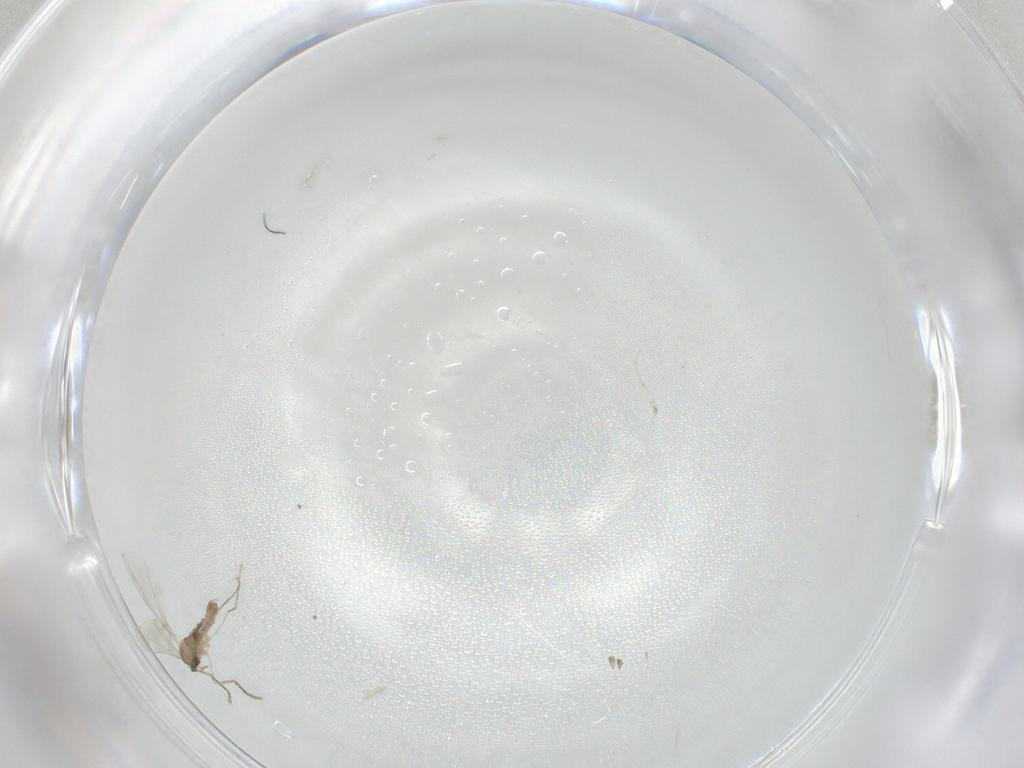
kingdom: Animalia
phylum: Arthropoda
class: Insecta
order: Diptera
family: Cecidomyiidae
